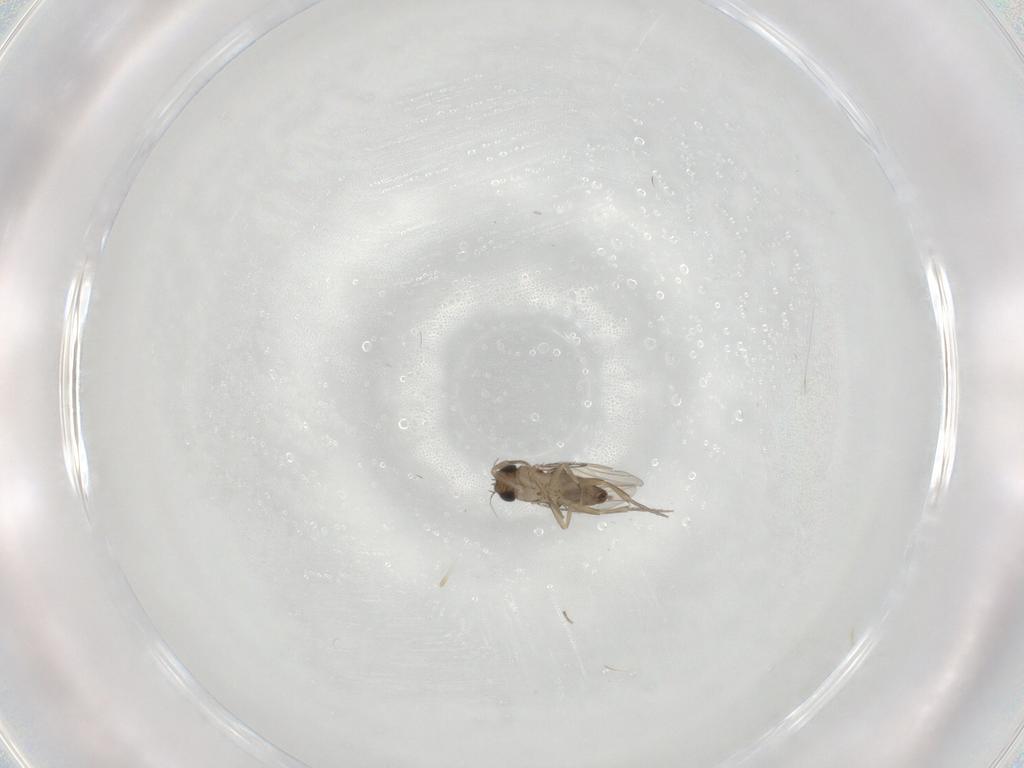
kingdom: Animalia
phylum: Arthropoda
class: Insecta
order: Diptera
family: Phoridae
